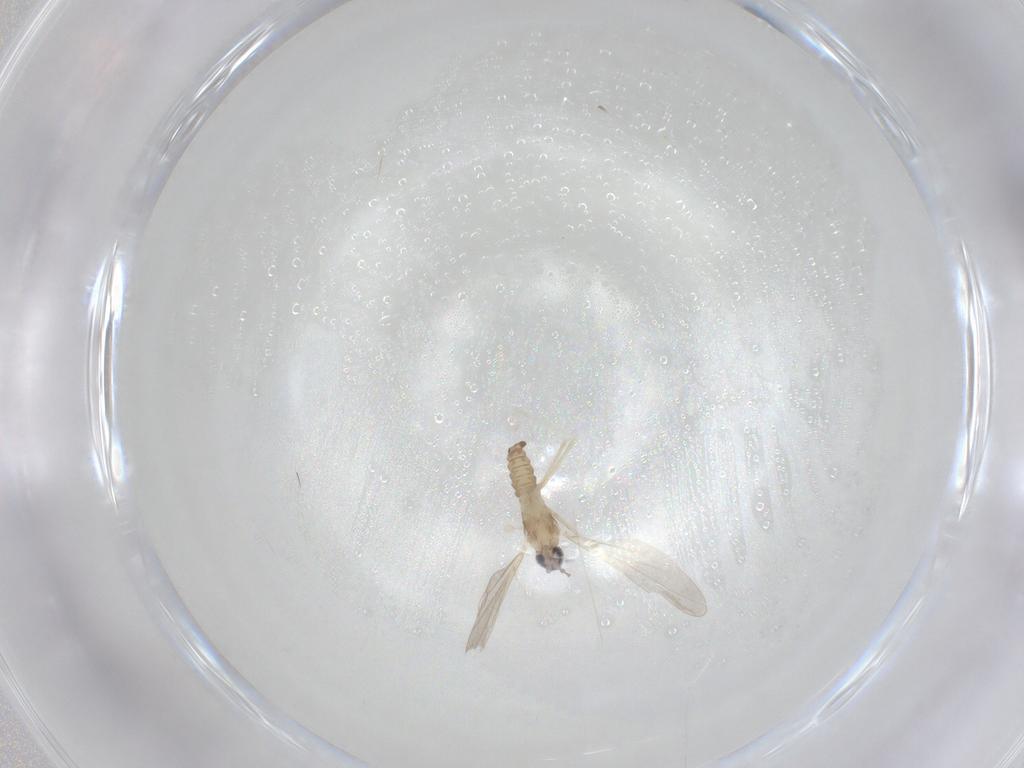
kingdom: Animalia
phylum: Arthropoda
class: Insecta
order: Diptera
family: Cecidomyiidae
